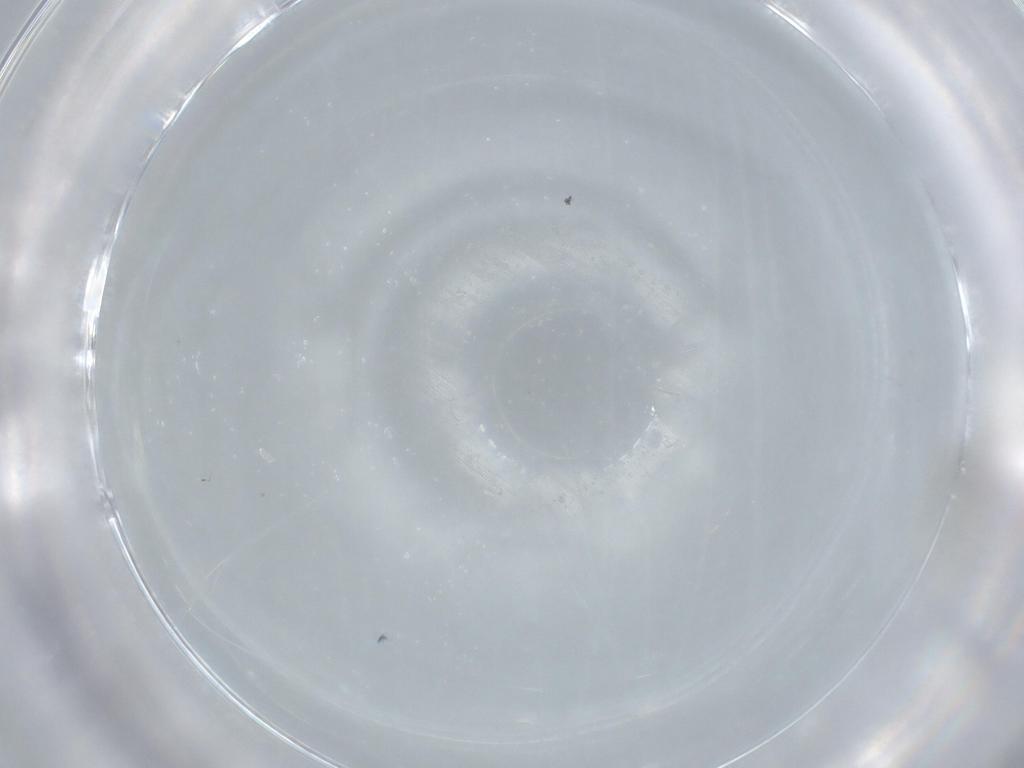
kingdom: Animalia
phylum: Arthropoda
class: Insecta
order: Diptera
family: Cecidomyiidae
